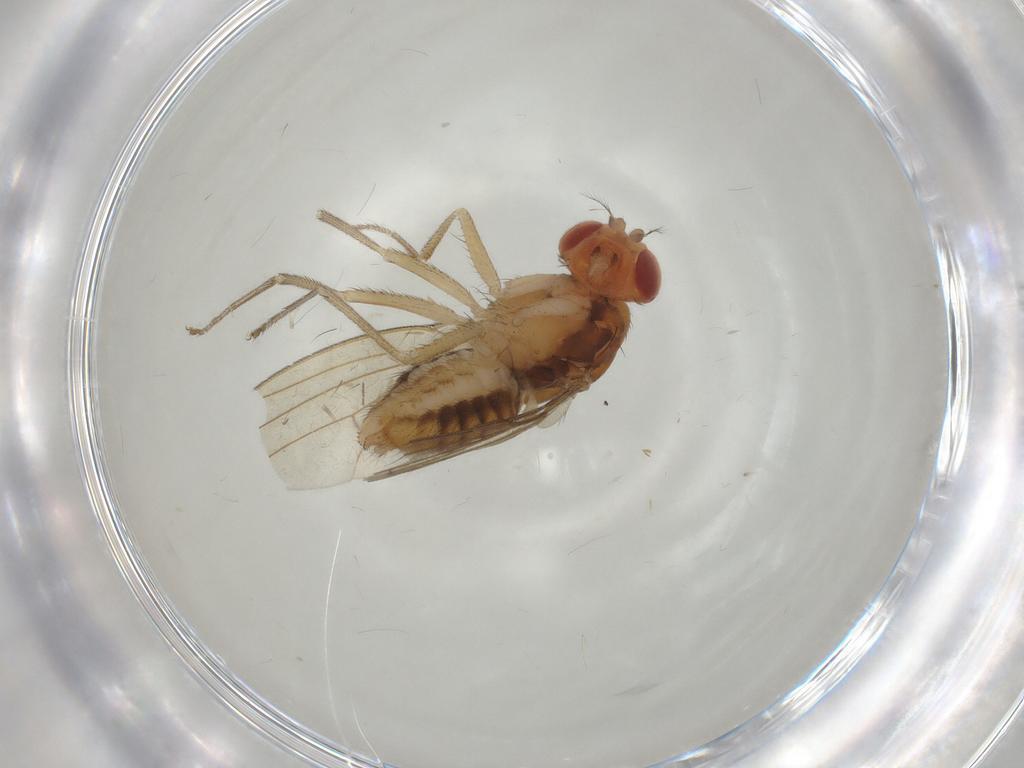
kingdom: Animalia
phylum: Arthropoda
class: Insecta
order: Diptera
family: Drosophilidae
